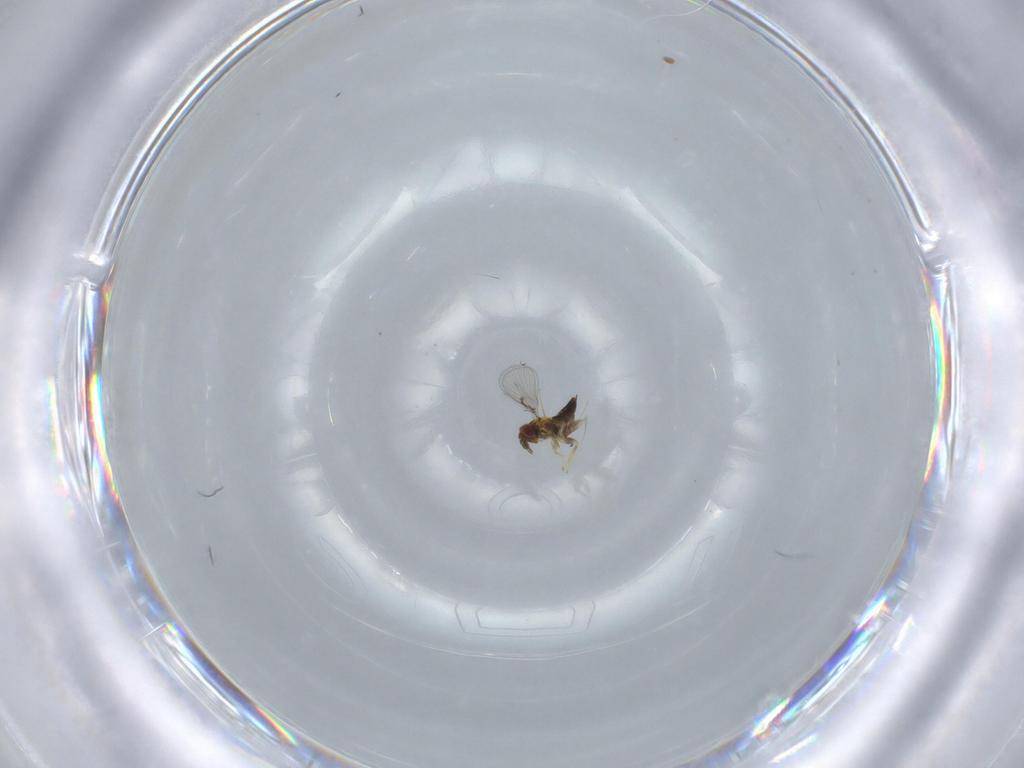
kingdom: Animalia
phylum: Arthropoda
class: Insecta
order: Hymenoptera
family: Trichogrammatidae
